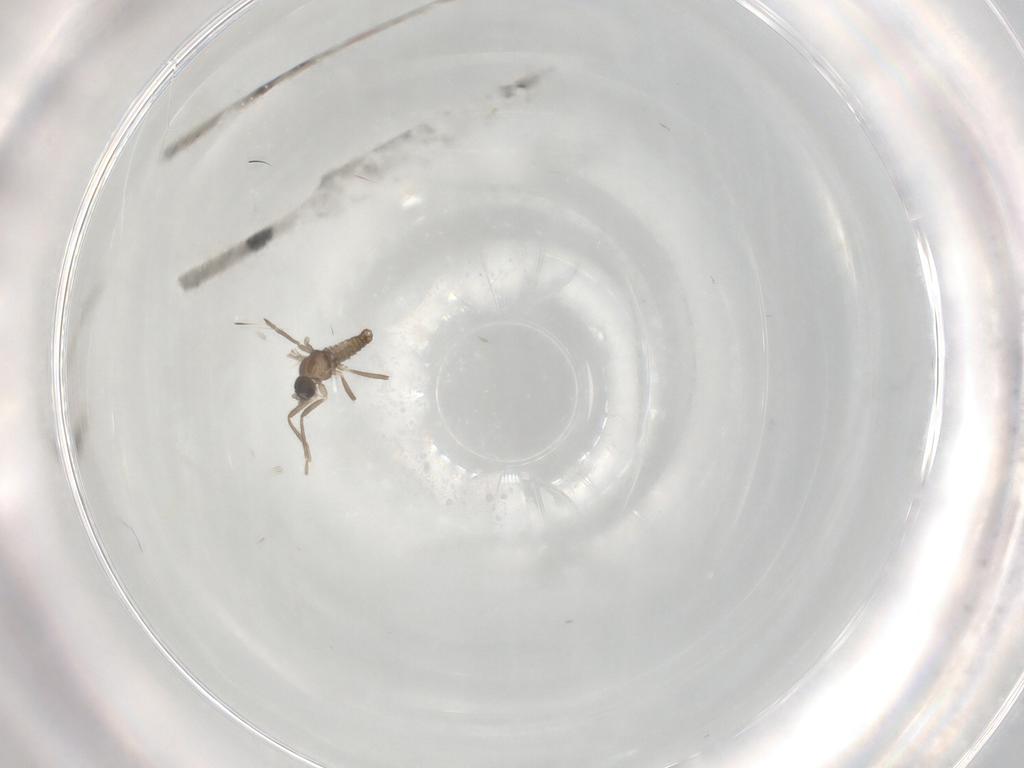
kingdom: Animalia
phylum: Arthropoda
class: Insecta
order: Diptera
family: Cecidomyiidae
